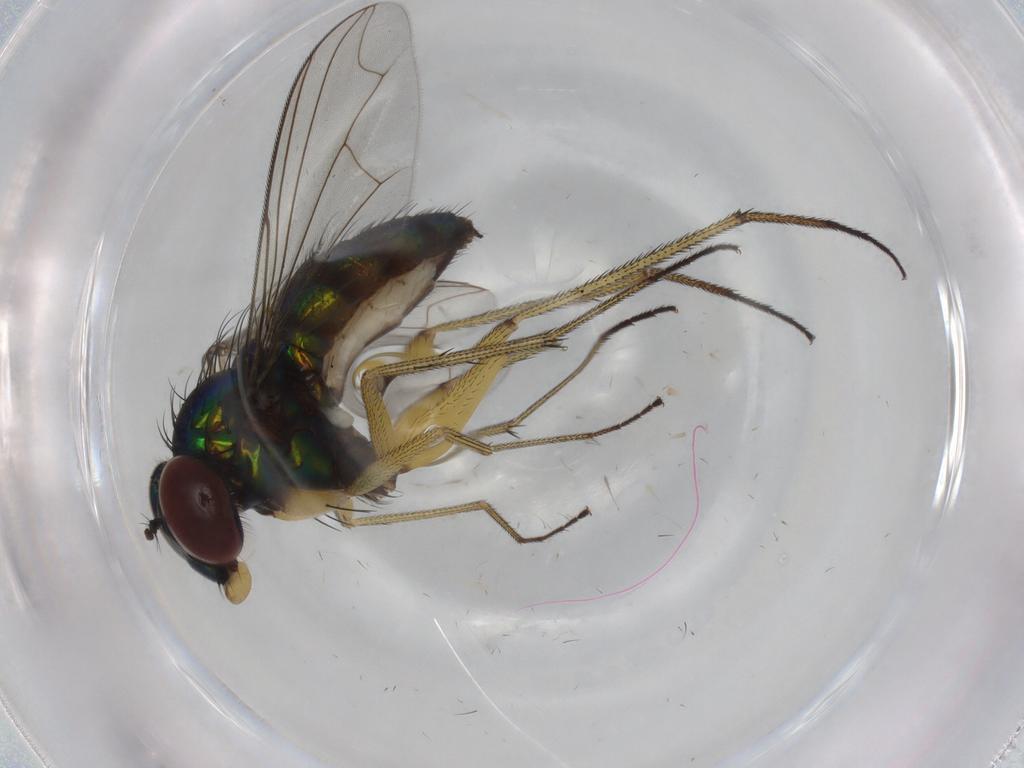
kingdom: Animalia
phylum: Arthropoda
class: Insecta
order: Diptera
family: Dolichopodidae
